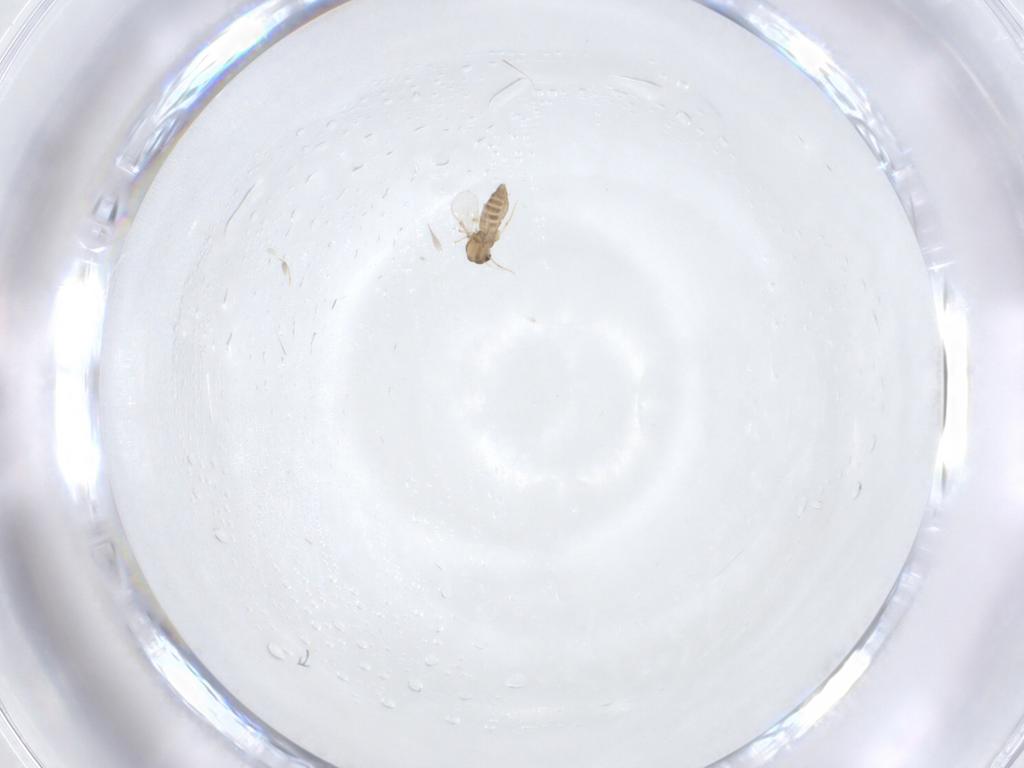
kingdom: Animalia
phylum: Arthropoda
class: Insecta
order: Diptera
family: Chironomidae
